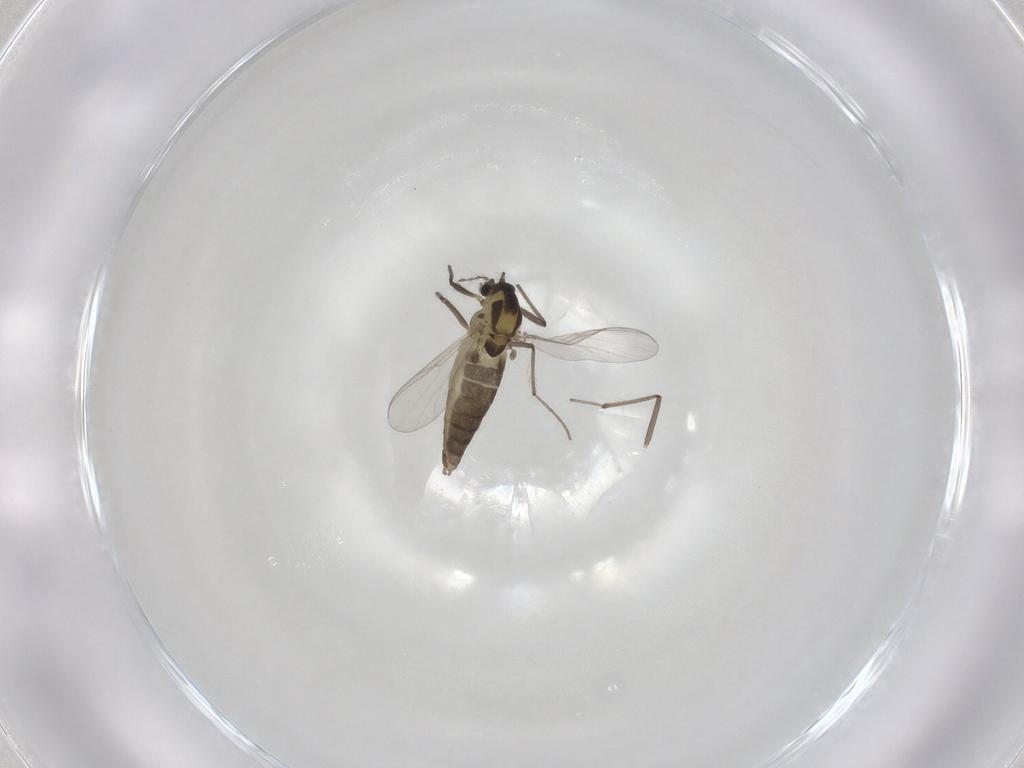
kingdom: Animalia
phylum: Arthropoda
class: Insecta
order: Diptera
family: Chironomidae
